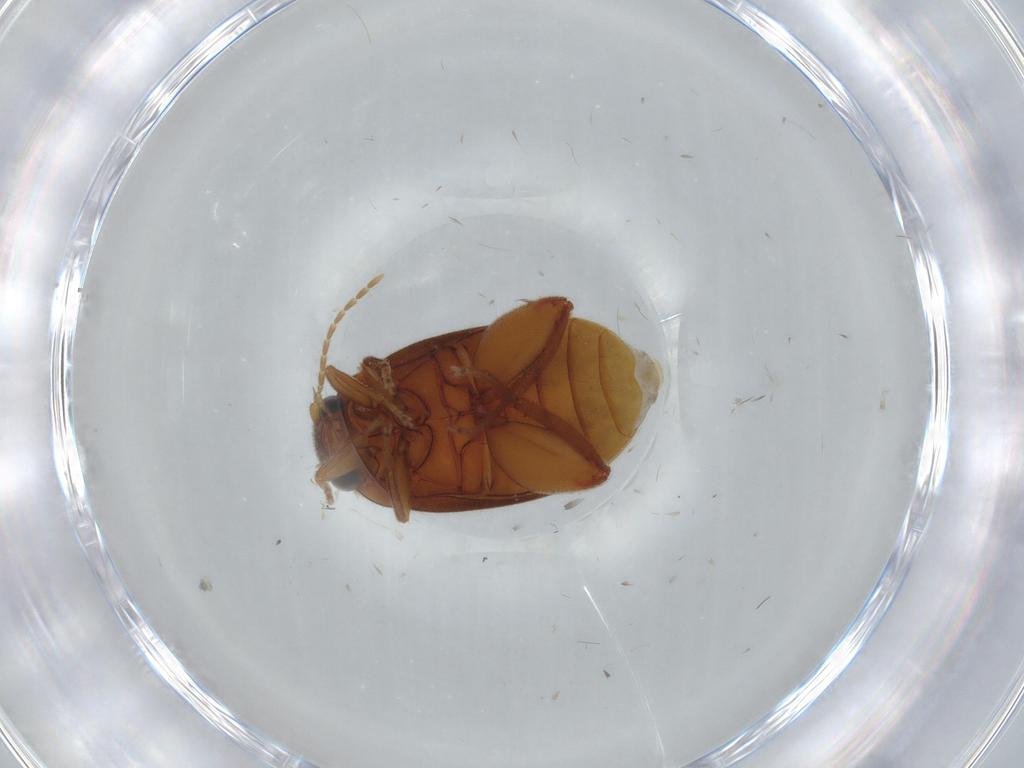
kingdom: Animalia
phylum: Arthropoda
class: Insecta
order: Coleoptera
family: Scirtidae
